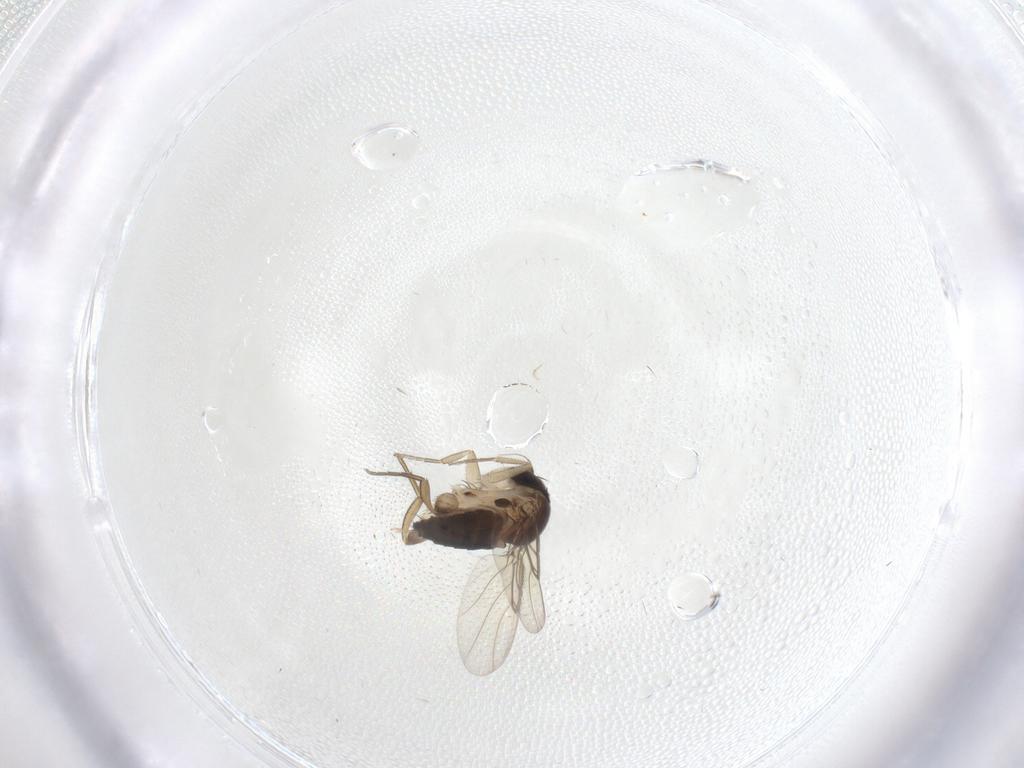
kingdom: Animalia
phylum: Arthropoda
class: Insecta
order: Diptera
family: Phoridae
